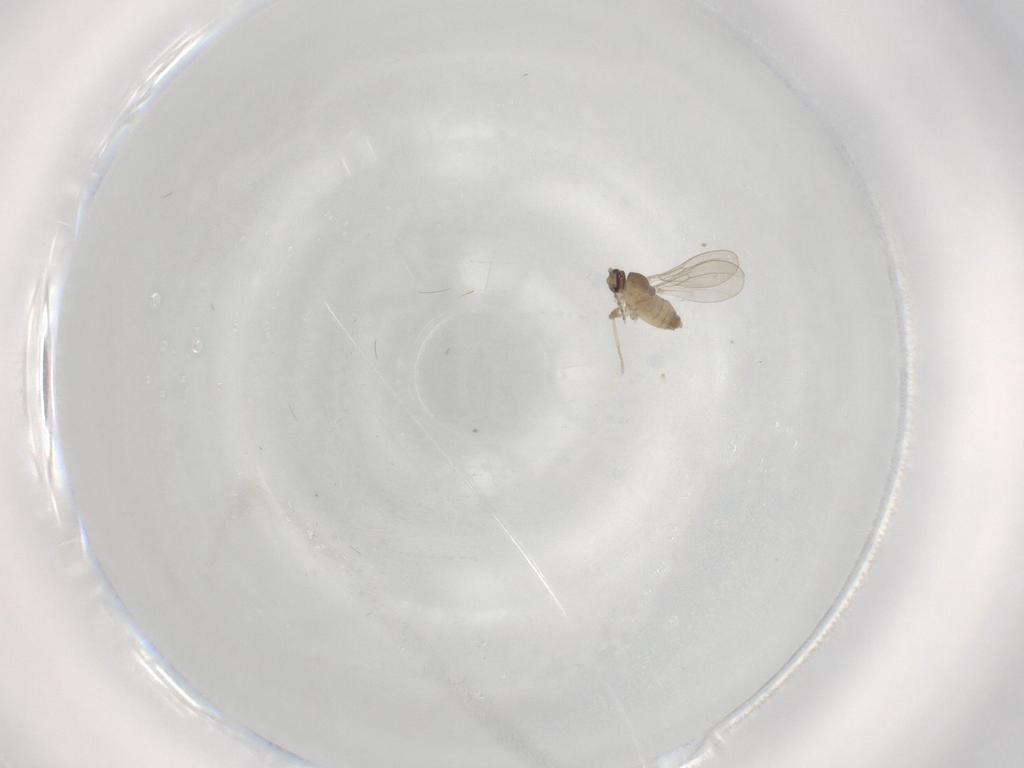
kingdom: Animalia
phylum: Arthropoda
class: Insecta
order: Diptera
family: Cecidomyiidae
